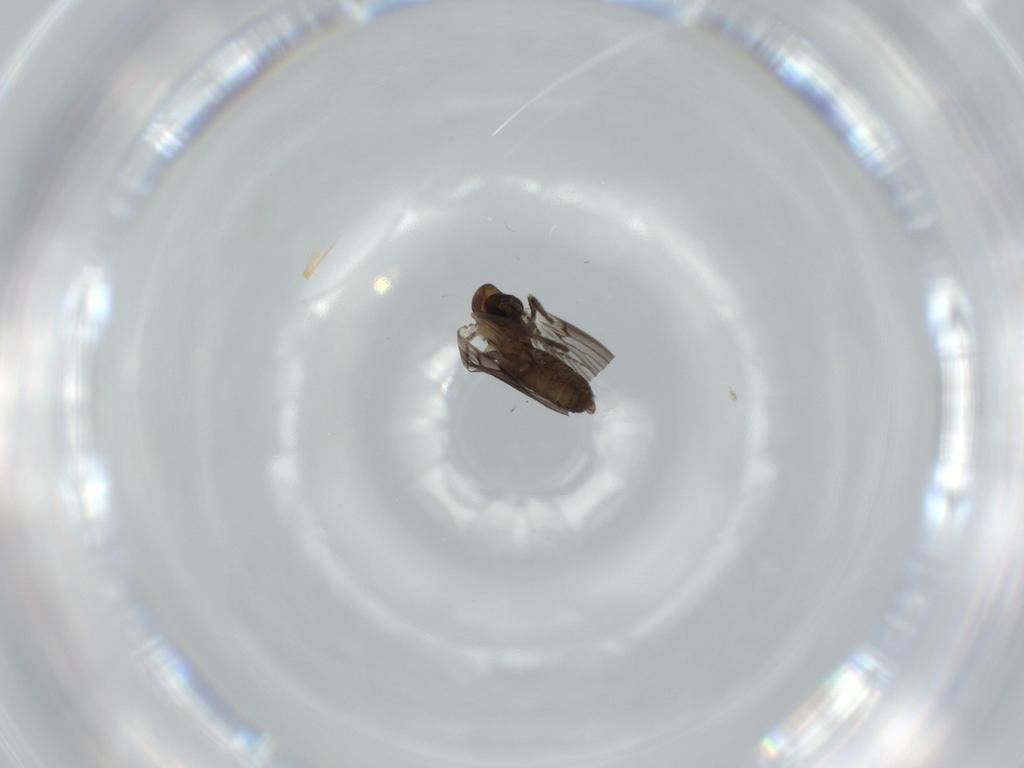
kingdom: Animalia
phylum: Arthropoda
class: Insecta
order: Diptera
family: Psychodidae
